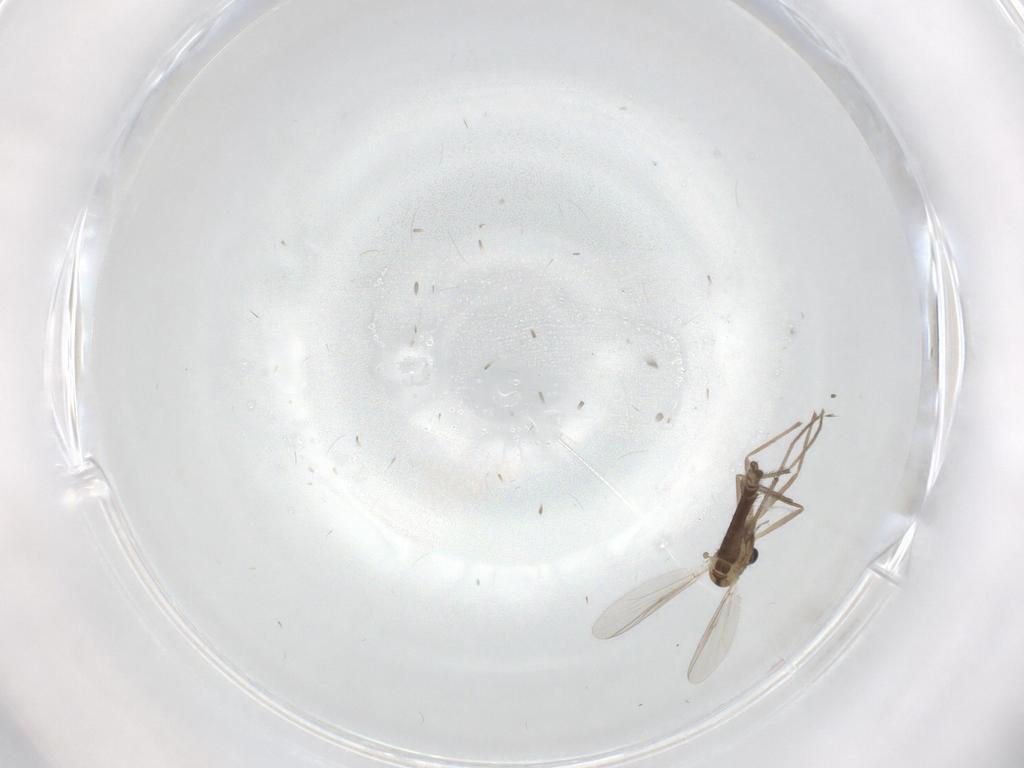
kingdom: Animalia
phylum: Arthropoda
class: Insecta
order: Diptera
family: Chironomidae
